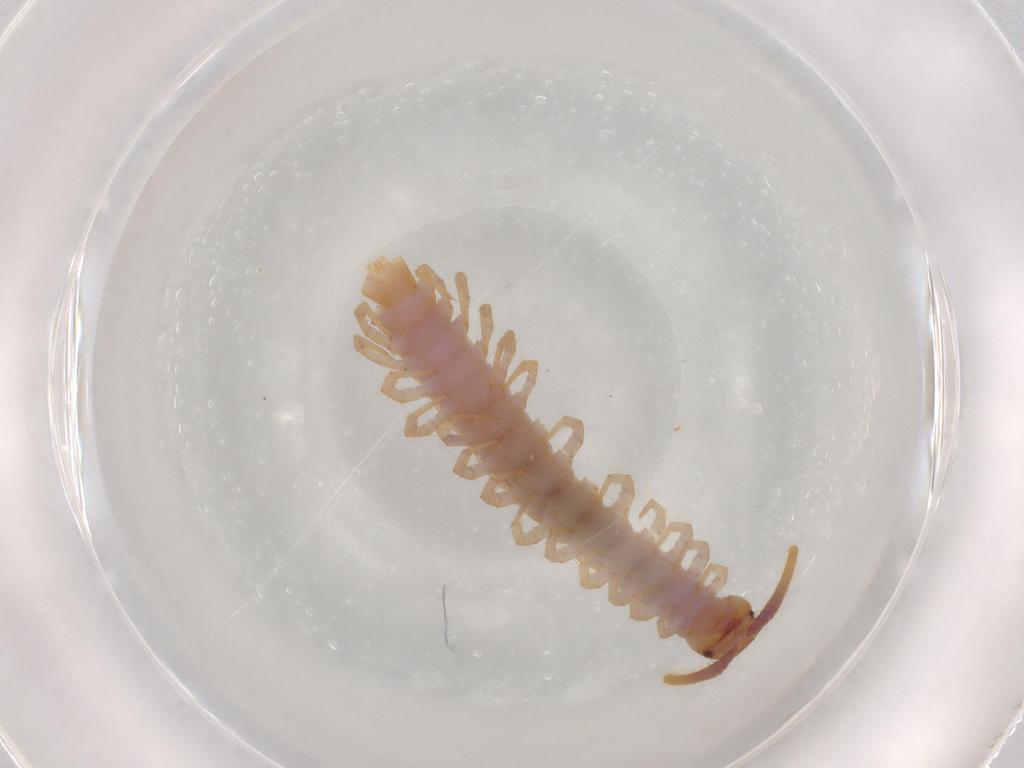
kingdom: Animalia
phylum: Arthropoda
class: Chilopoda
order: Lithobiomorpha
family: Lithobiidae
